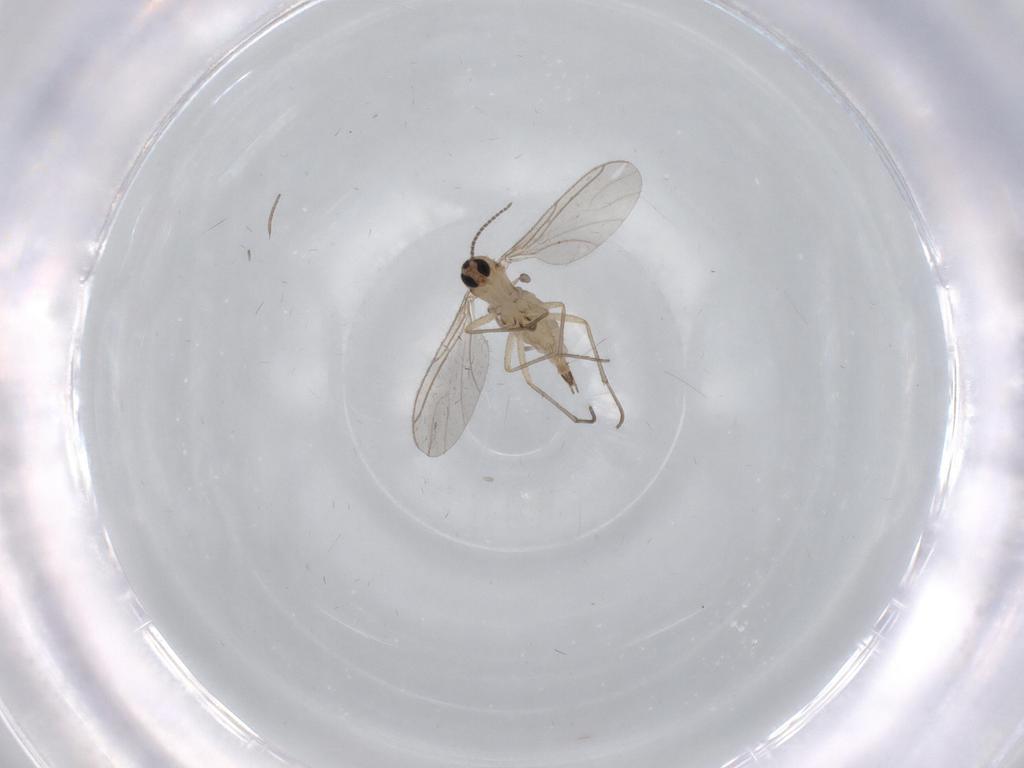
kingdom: Animalia
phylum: Arthropoda
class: Insecta
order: Diptera
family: Sciaridae
